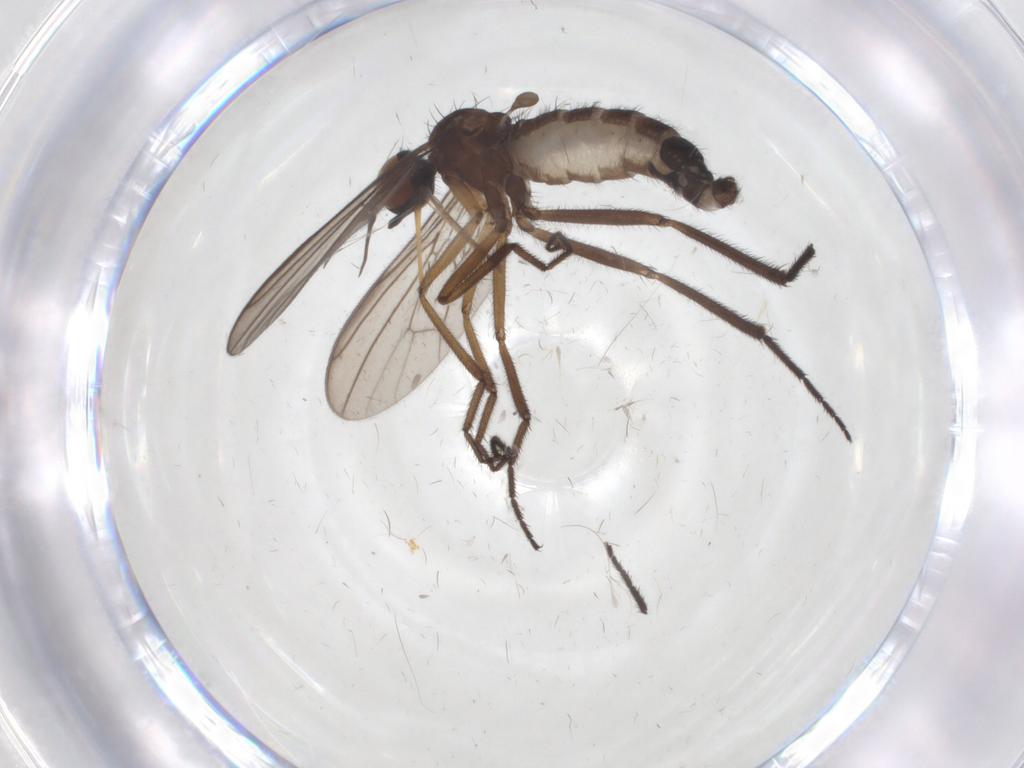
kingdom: Animalia
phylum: Arthropoda
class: Insecta
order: Diptera
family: Empididae
